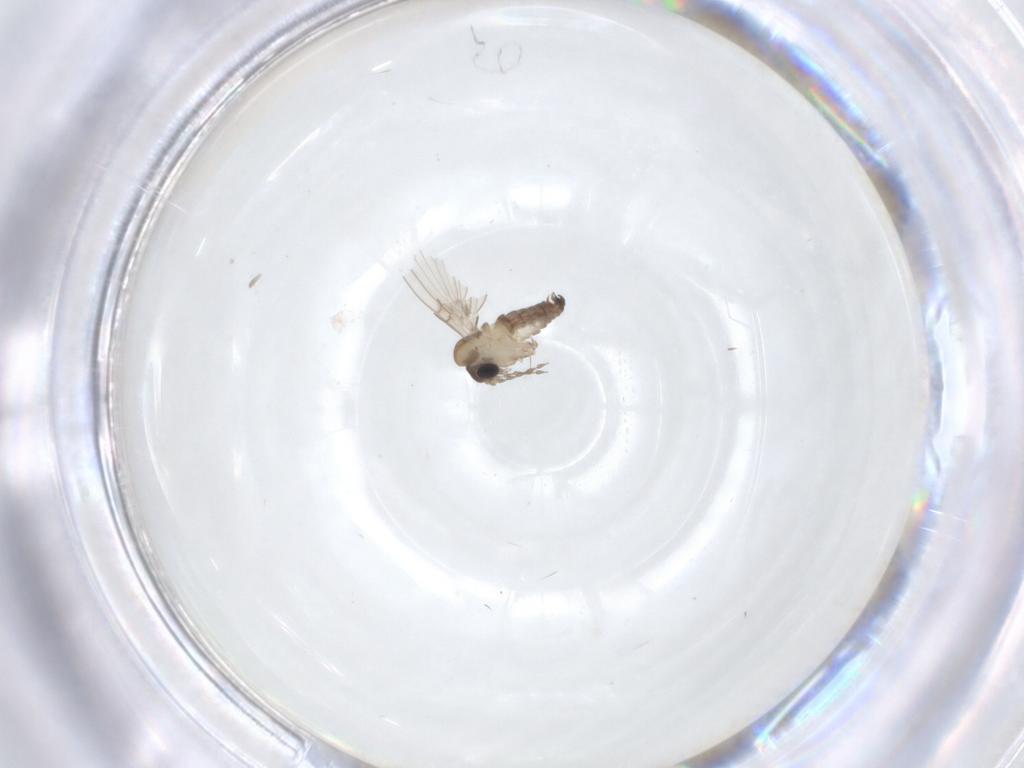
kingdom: Animalia
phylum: Arthropoda
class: Insecta
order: Diptera
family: Psychodidae
